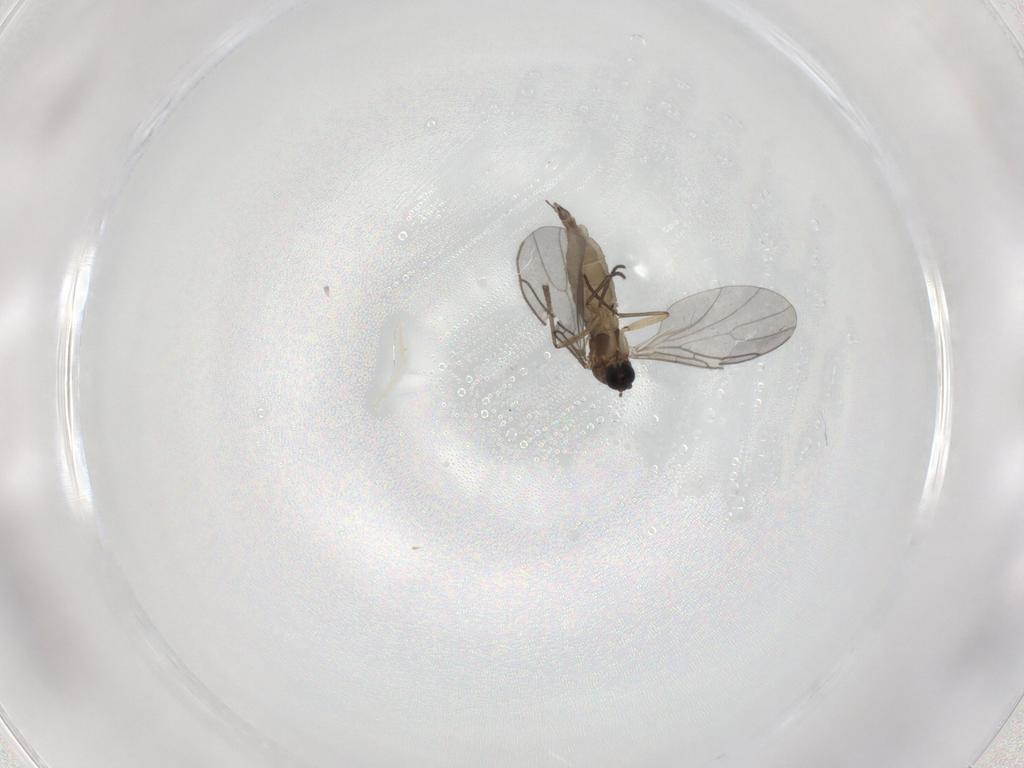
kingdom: Animalia
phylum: Arthropoda
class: Insecta
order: Diptera
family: Sciaridae
